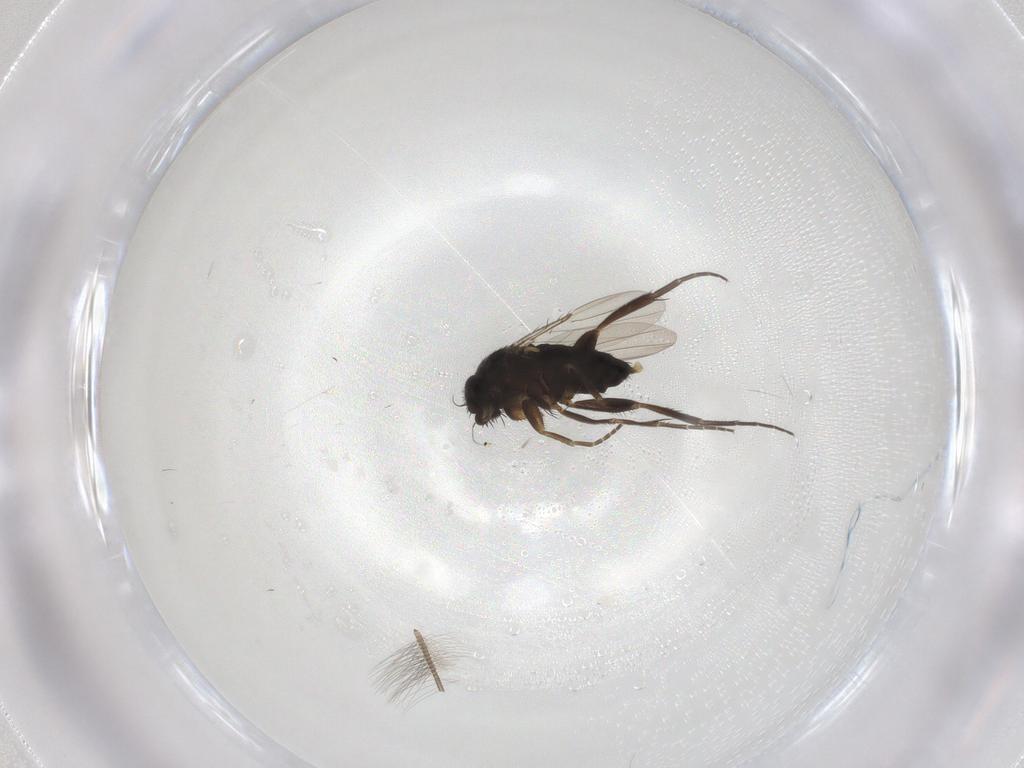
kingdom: Animalia
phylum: Arthropoda
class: Insecta
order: Diptera
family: Phoridae
